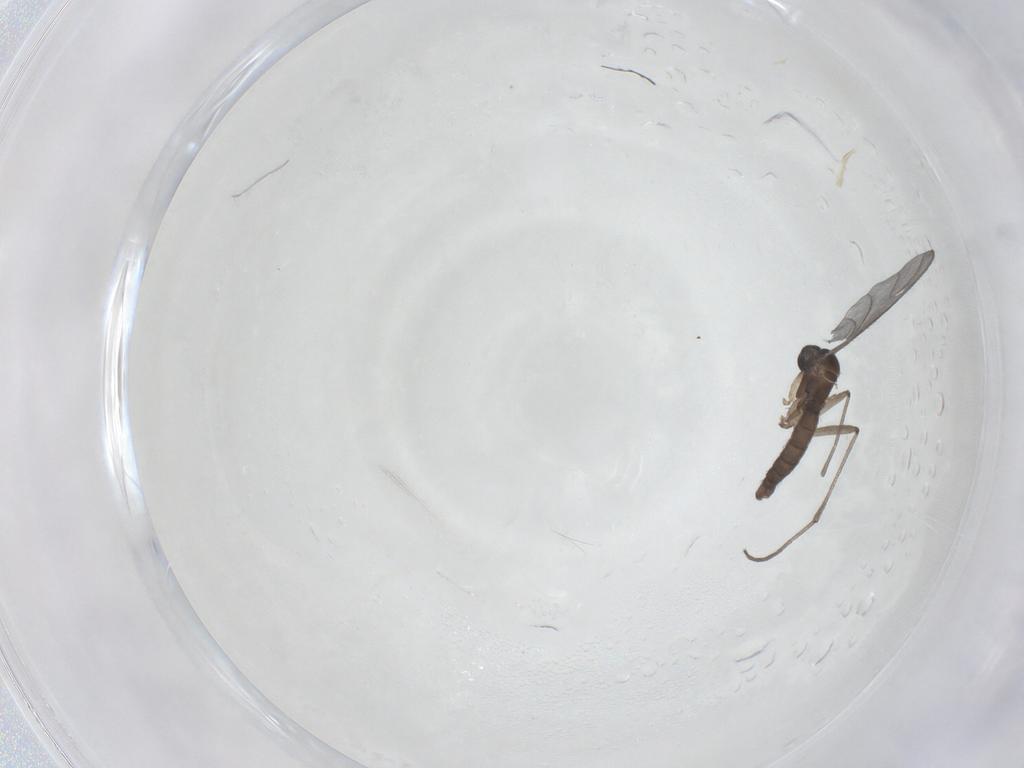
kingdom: Animalia
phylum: Arthropoda
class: Insecta
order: Diptera
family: Sciaridae
